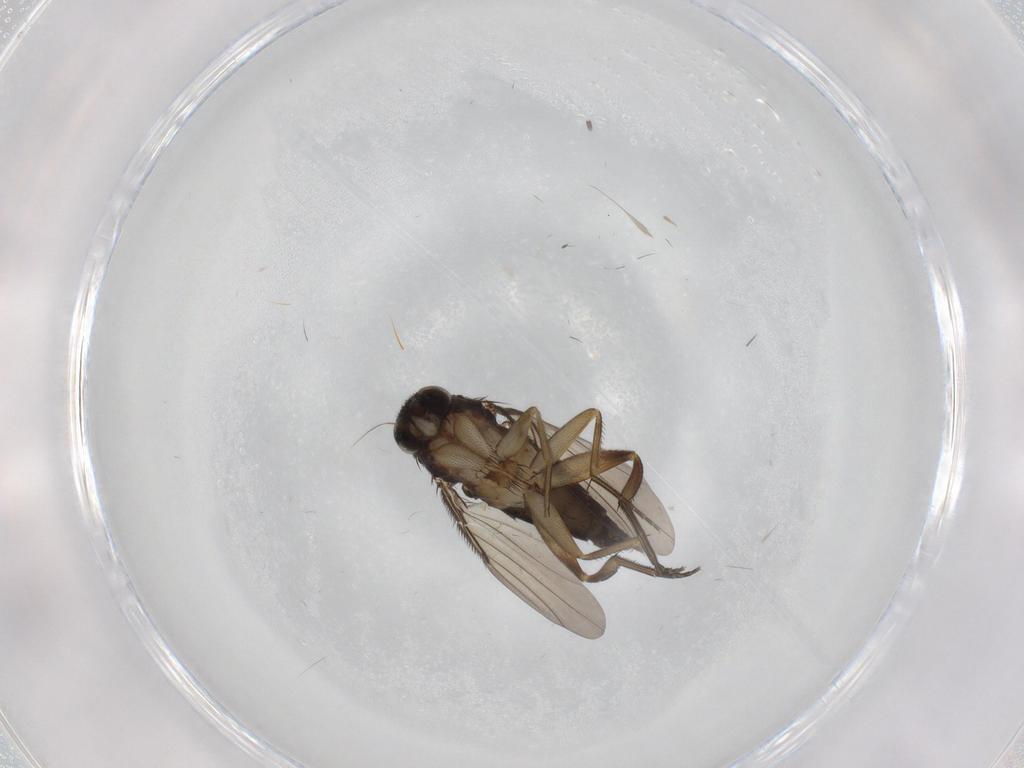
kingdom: Animalia
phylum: Arthropoda
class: Insecta
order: Diptera
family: Phoridae
